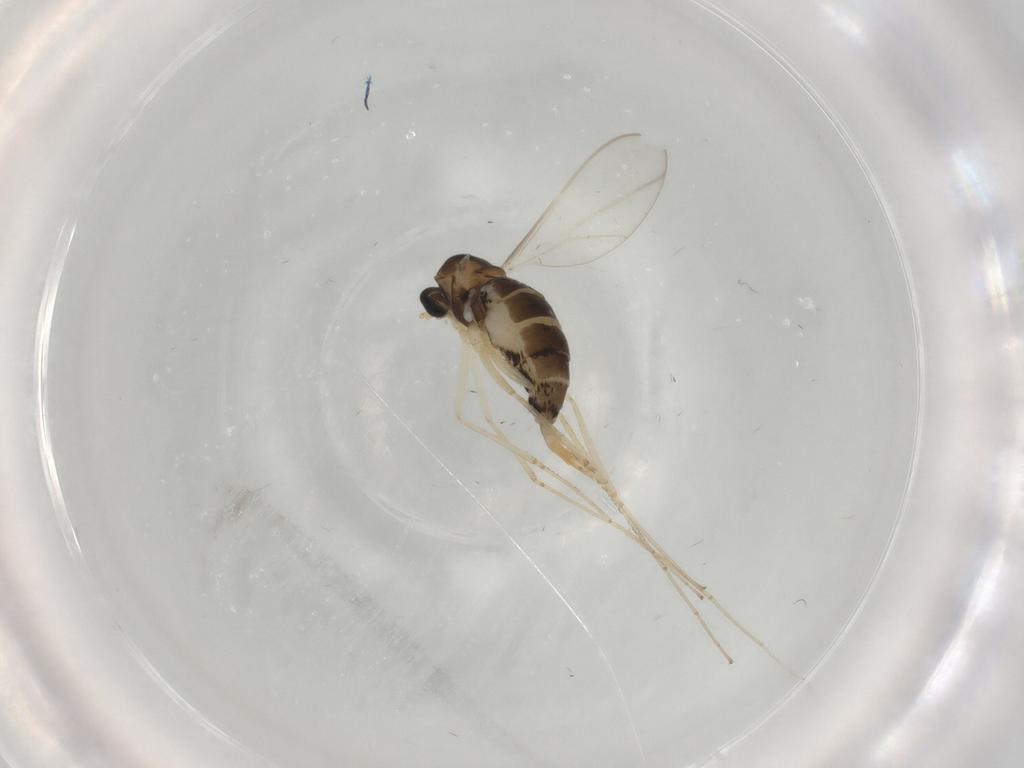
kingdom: Animalia
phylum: Arthropoda
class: Insecta
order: Diptera
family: Cecidomyiidae
